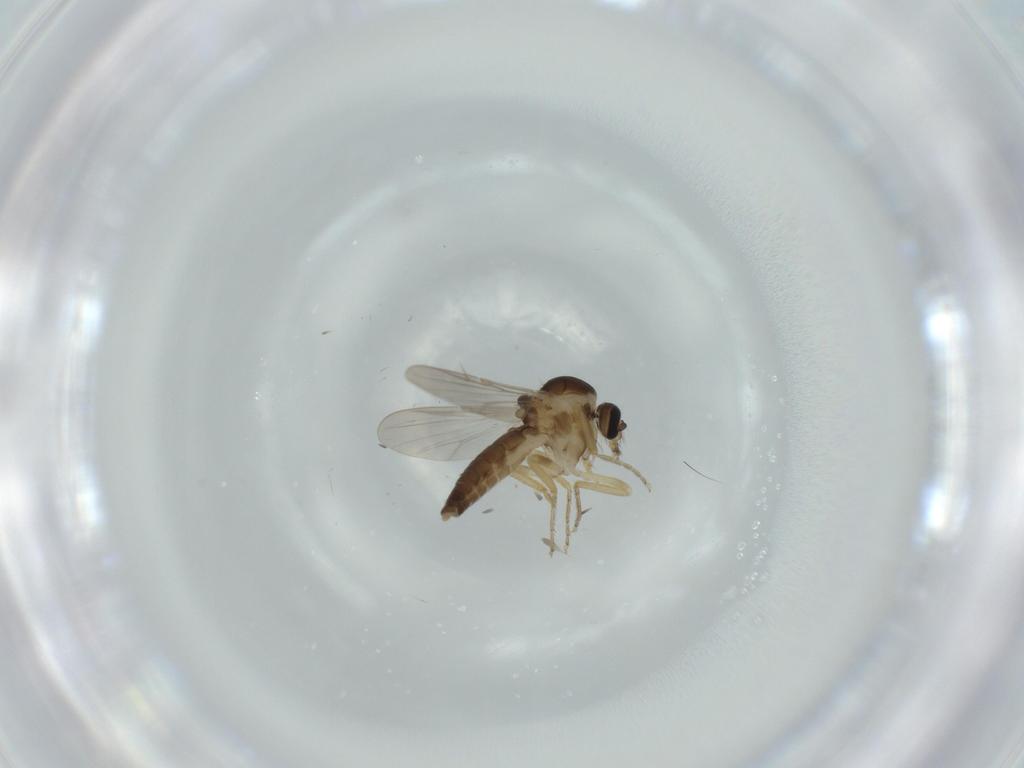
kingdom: Animalia
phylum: Arthropoda
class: Insecta
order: Diptera
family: Ceratopogonidae
